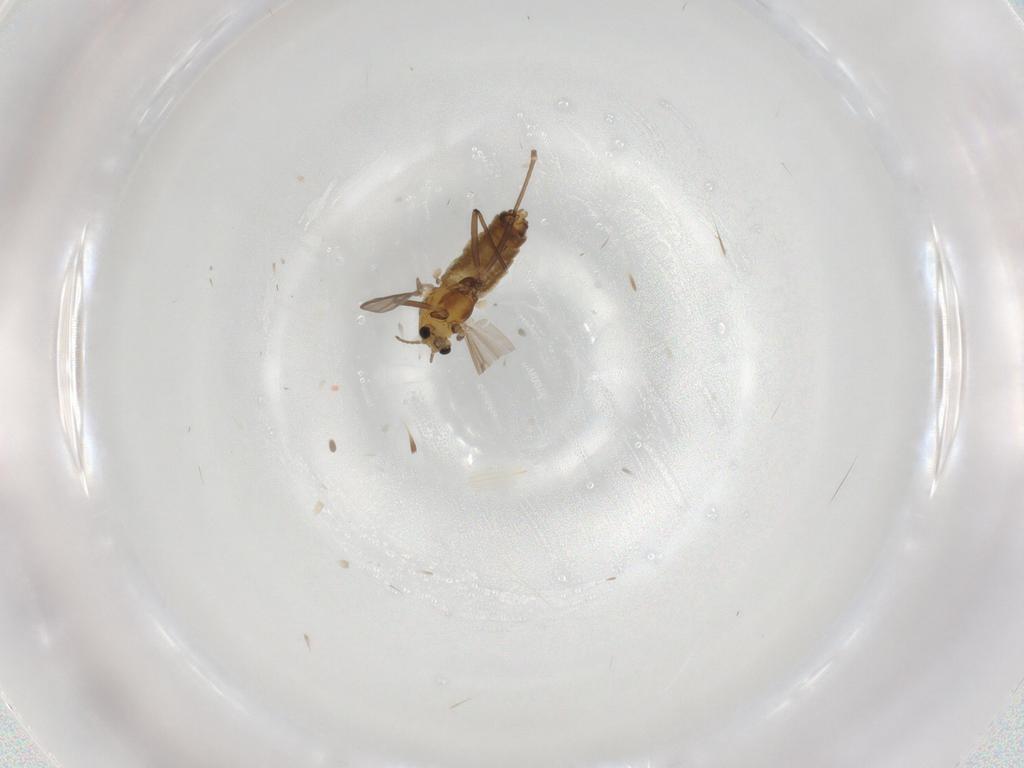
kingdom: Animalia
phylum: Arthropoda
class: Insecta
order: Diptera
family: Chironomidae
